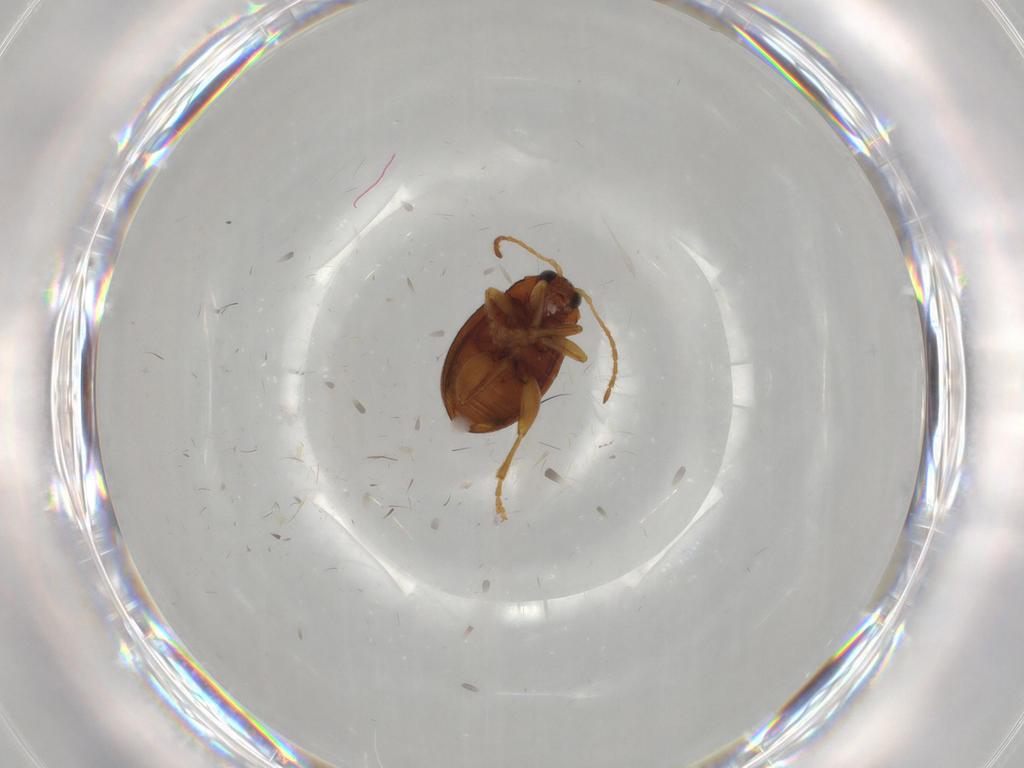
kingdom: Animalia
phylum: Arthropoda
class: Insecta
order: Coleoptera
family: Chrysomelidae
